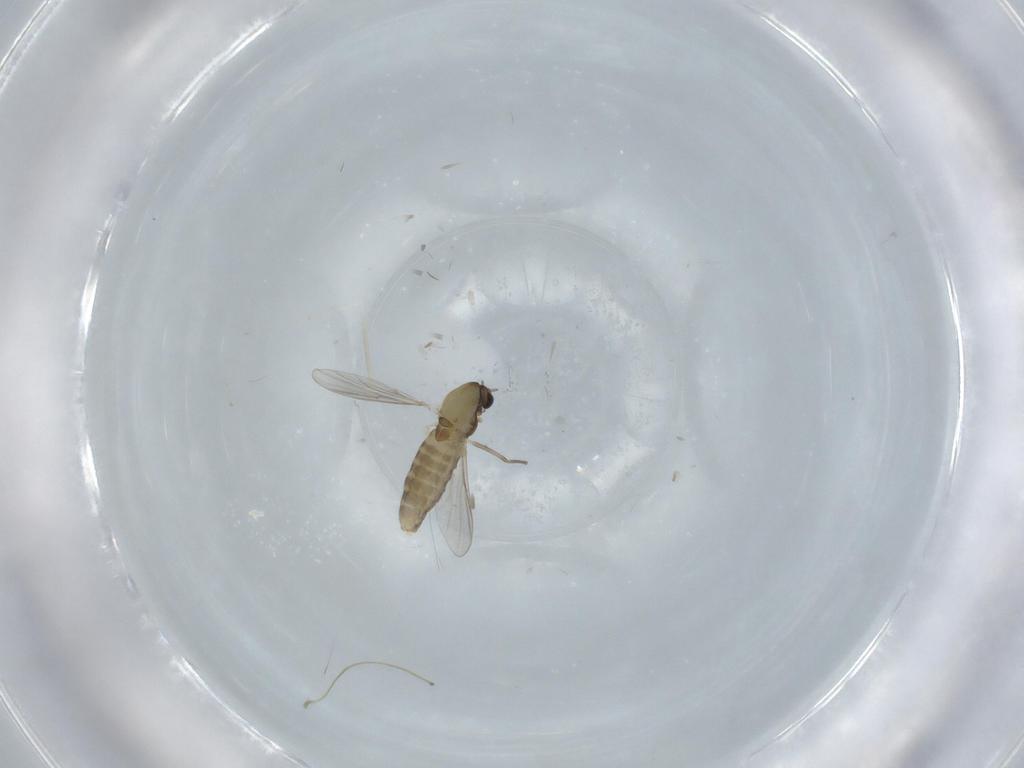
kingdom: Animalia
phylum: Arthropoda
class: Insecta
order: Diptera
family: Cecidomyiidae
